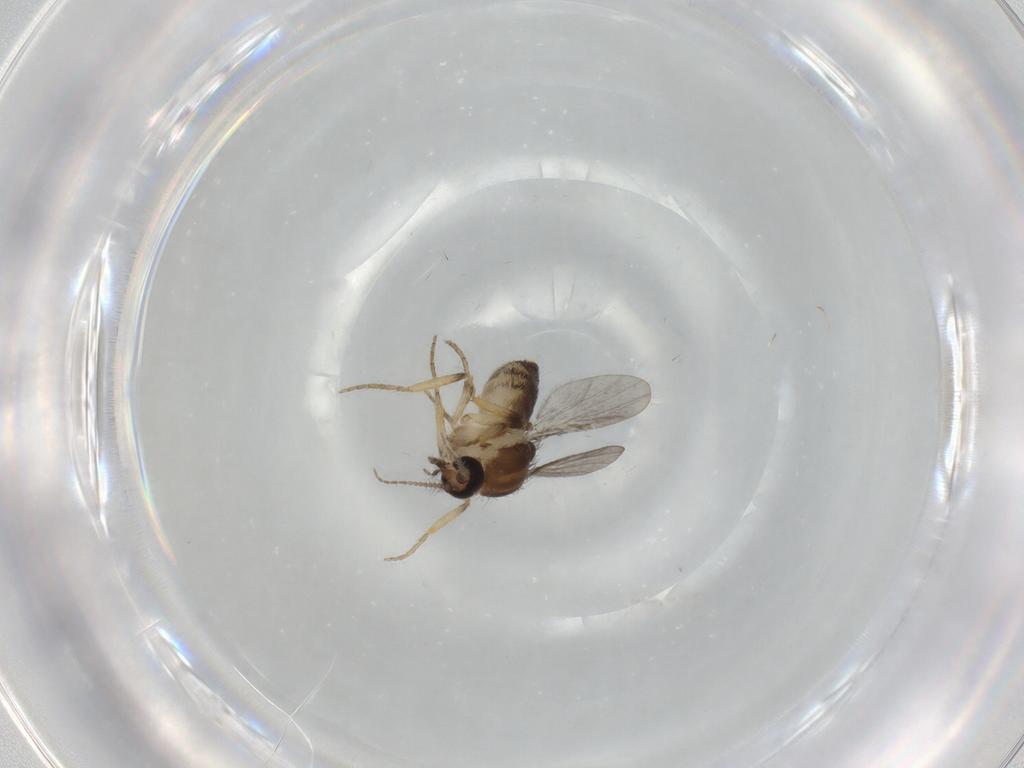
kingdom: Animalia
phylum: Arthropoda
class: Insecta
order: Diptera
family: Ceratopogonidae
